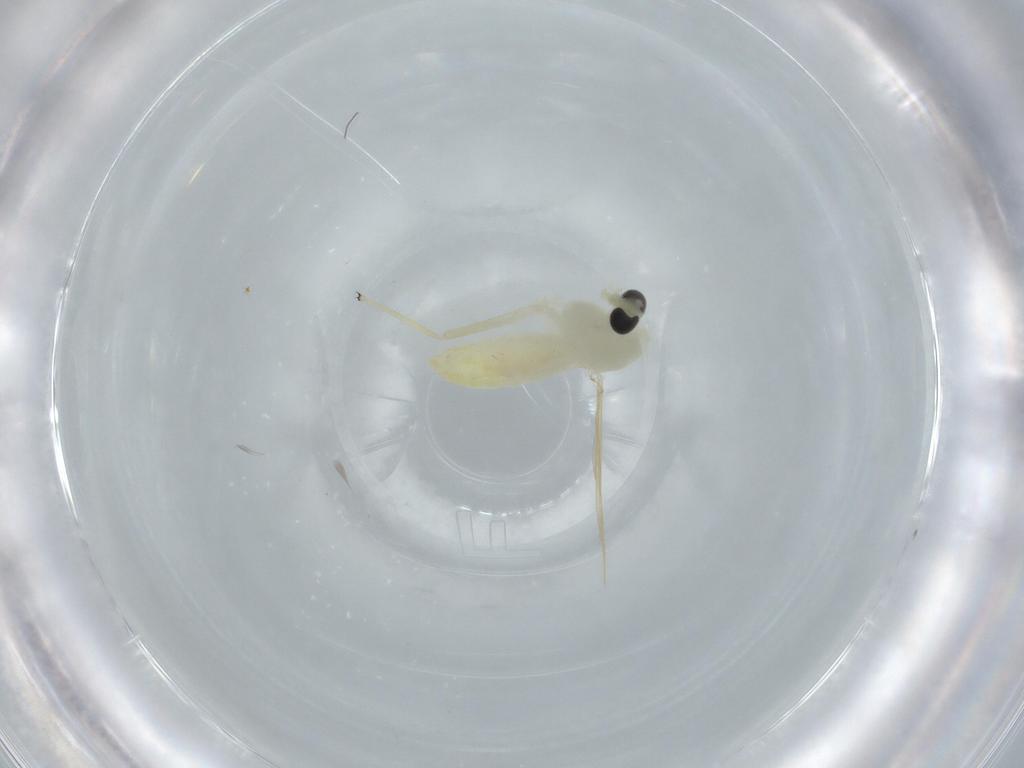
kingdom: Animalia
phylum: Arthropoda
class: Insecta
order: Diptera
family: Chironomidae
